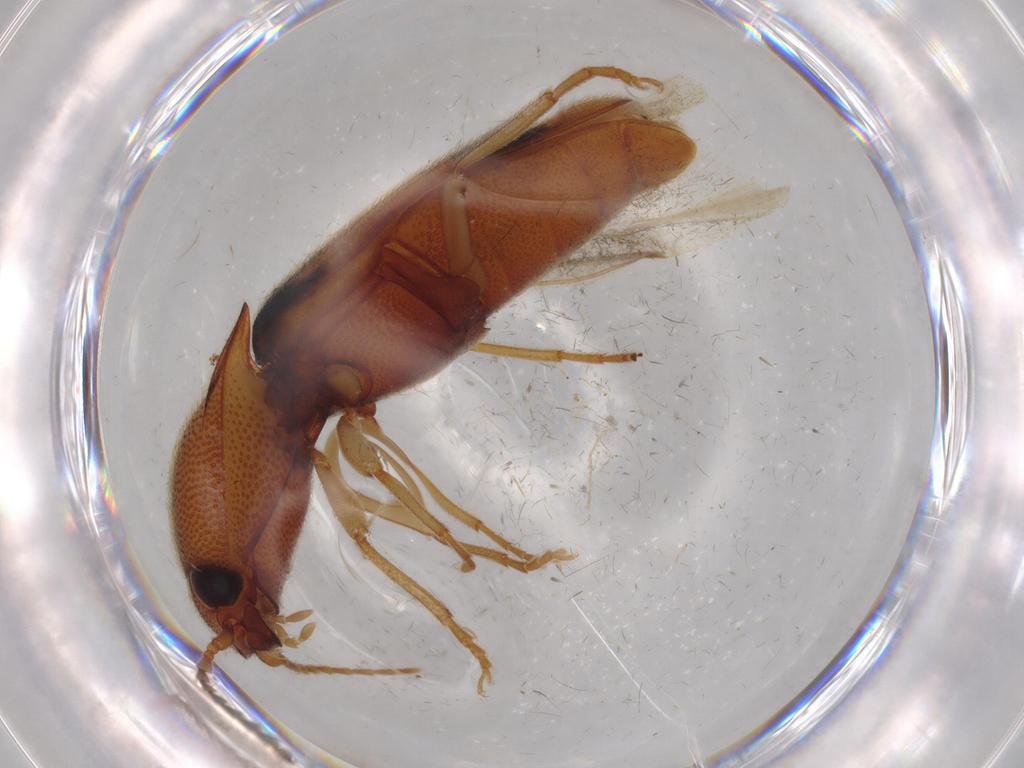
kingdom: Animalia
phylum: Arthropoda
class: Insecta
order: Coleoptera
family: Elateridae
